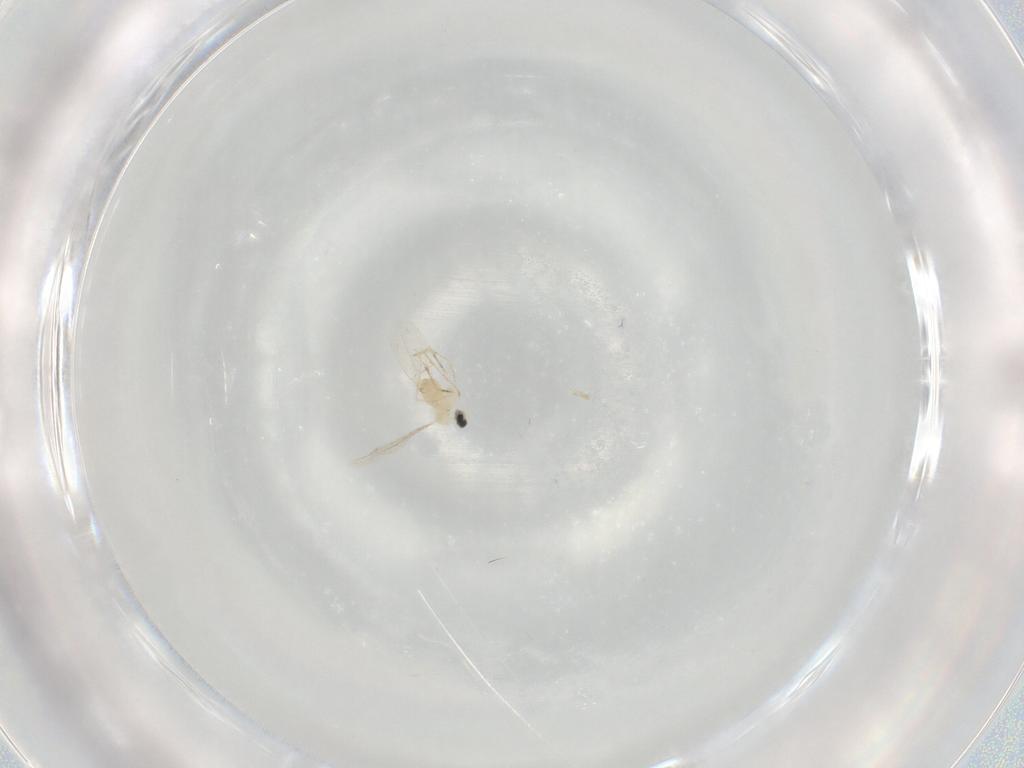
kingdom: Animalia
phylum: Arthropoda
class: Insecta
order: Diptera
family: Cecidomyiidae
